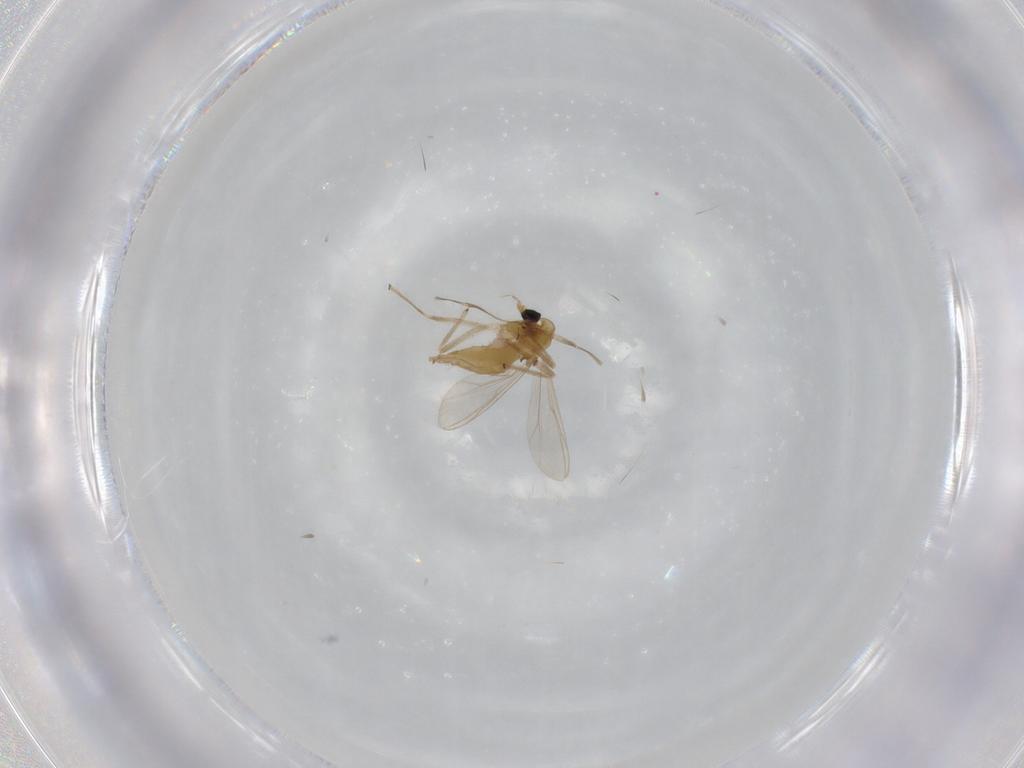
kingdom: Animalia
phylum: Arthropoda
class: Insecta
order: Diptera
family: Chironomidae
